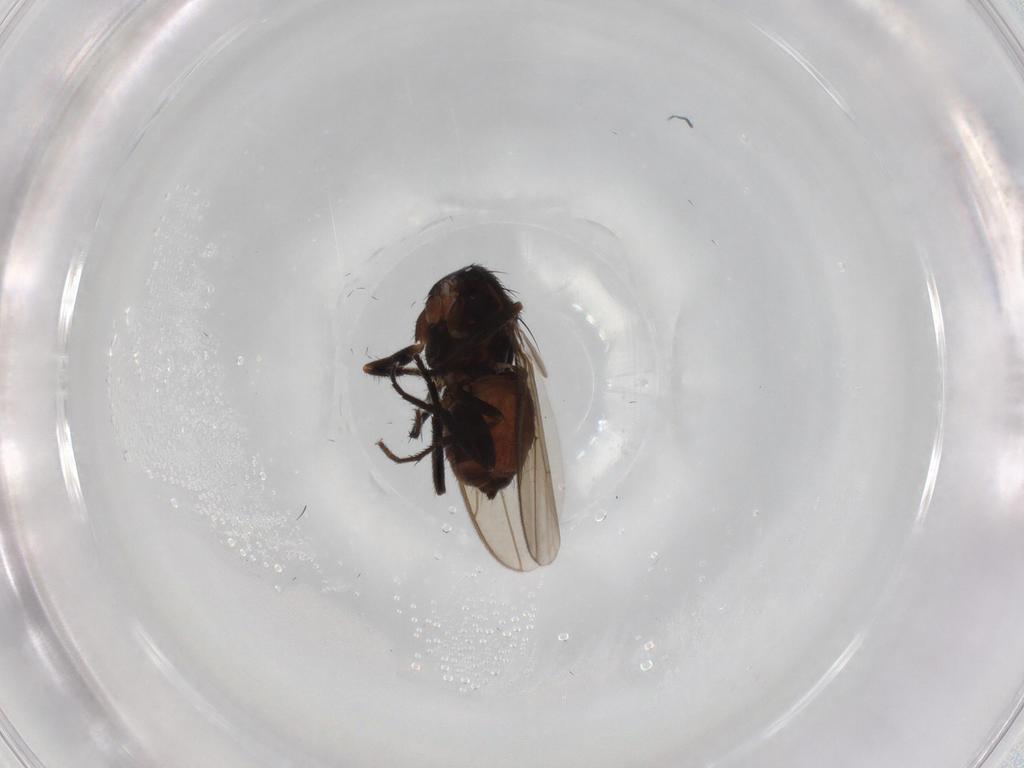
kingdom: Animalia
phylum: Arthropoda
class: Insecta
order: Diptera
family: Sphaeroceridae
